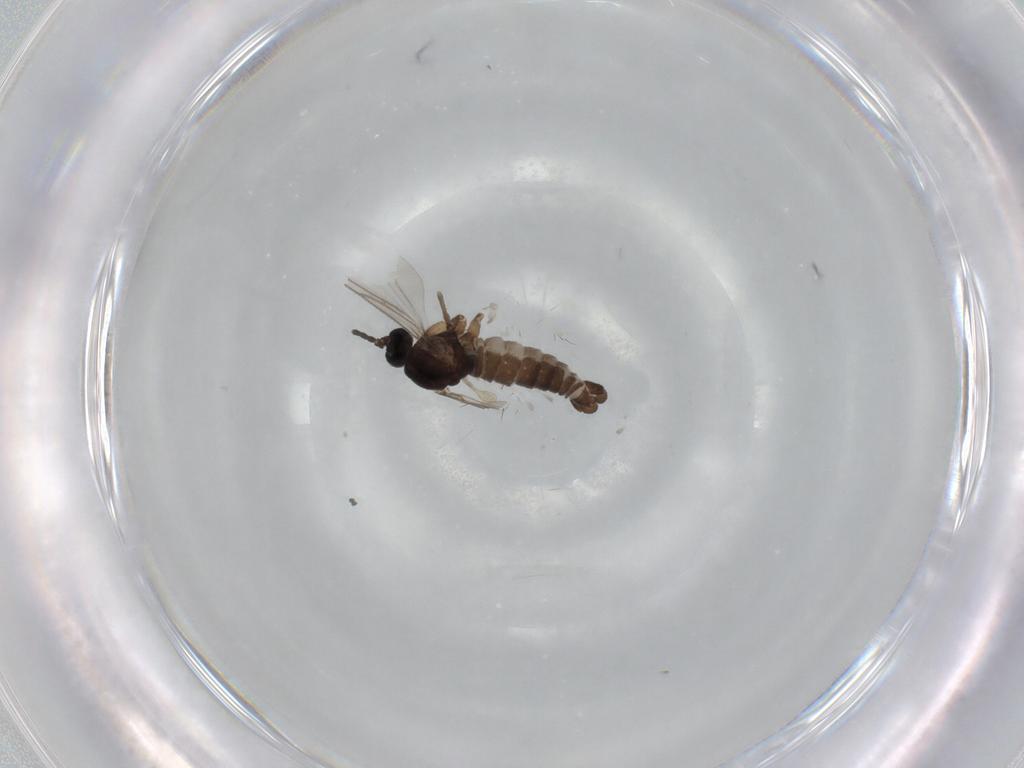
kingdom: Animalia
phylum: Arthropoda
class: Insecta
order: Diptera
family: Sciaridae
